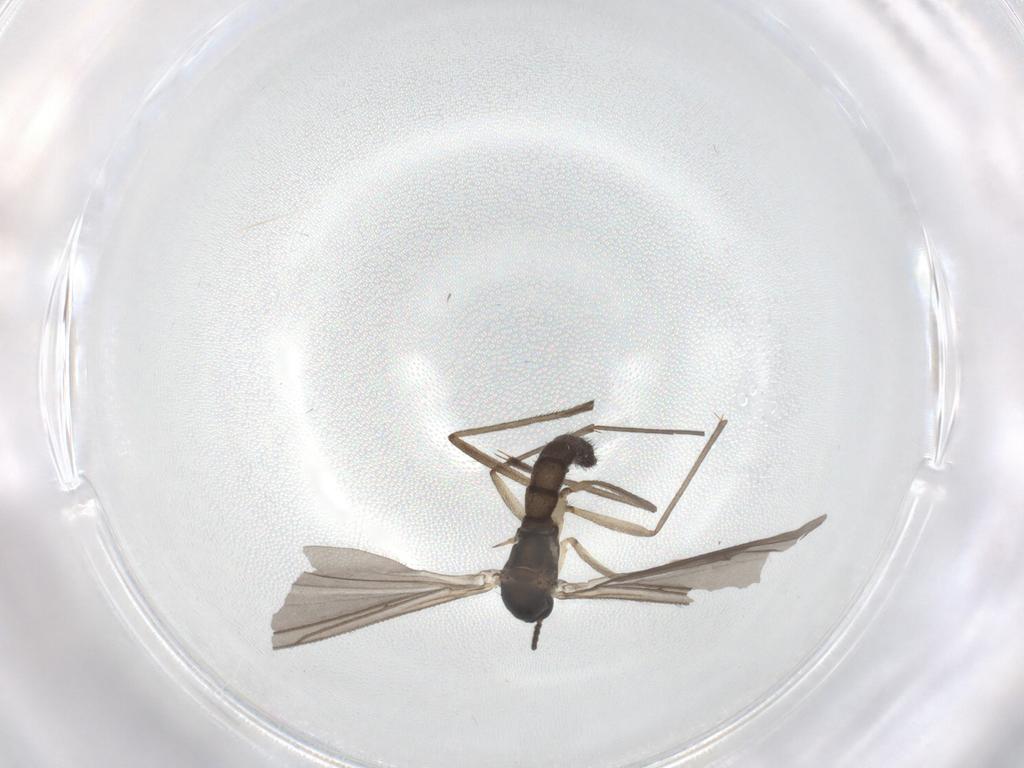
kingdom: Animalia
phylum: Arthropoda
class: Insecta
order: Diptera
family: Sciaridae
